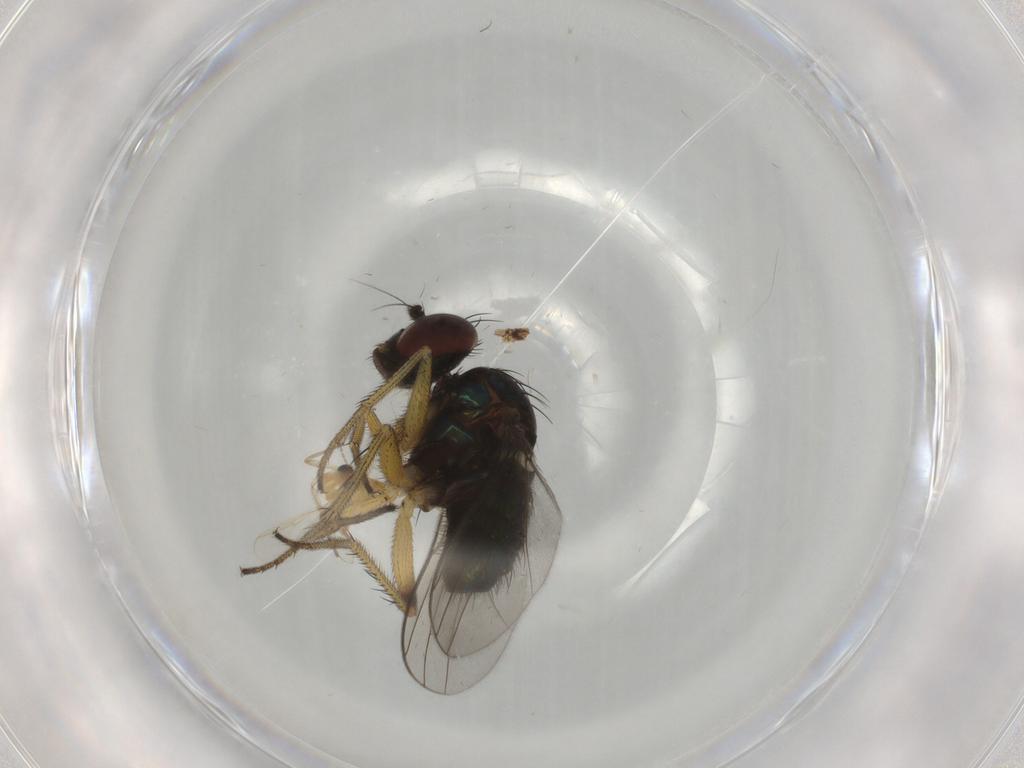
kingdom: Animalia
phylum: Arthropoda
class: Insecta
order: Diptera
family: Dolichopodidae
